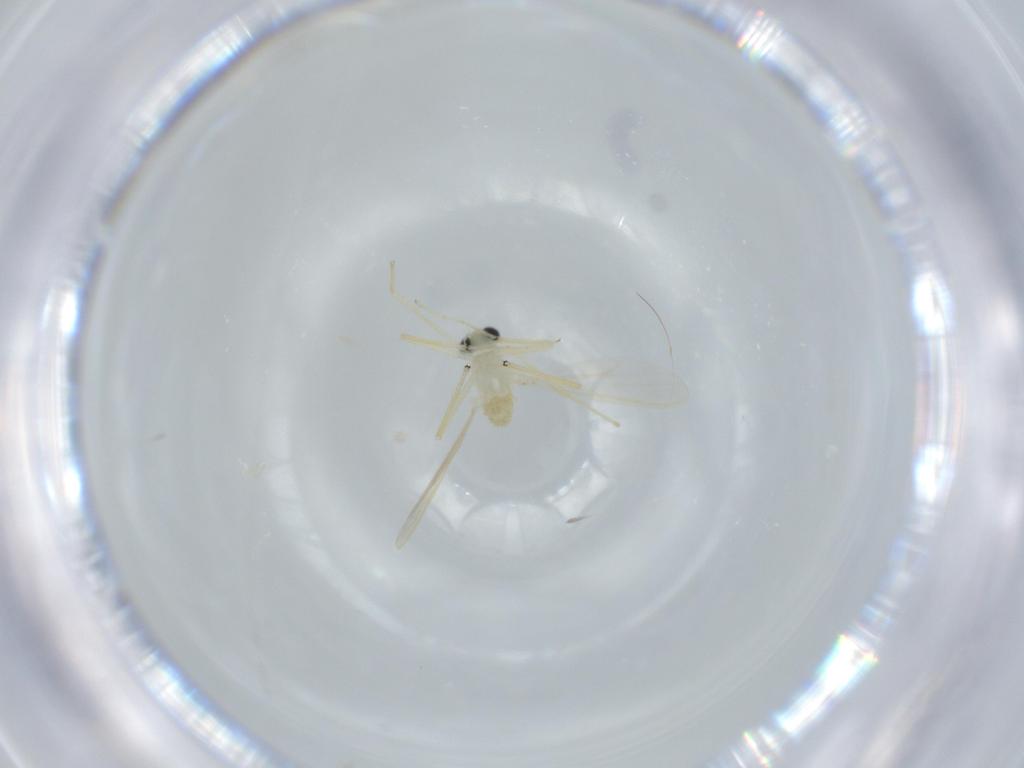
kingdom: Animalia
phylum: Arthropoda
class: Insecta
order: Diptera
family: Chironomidae
